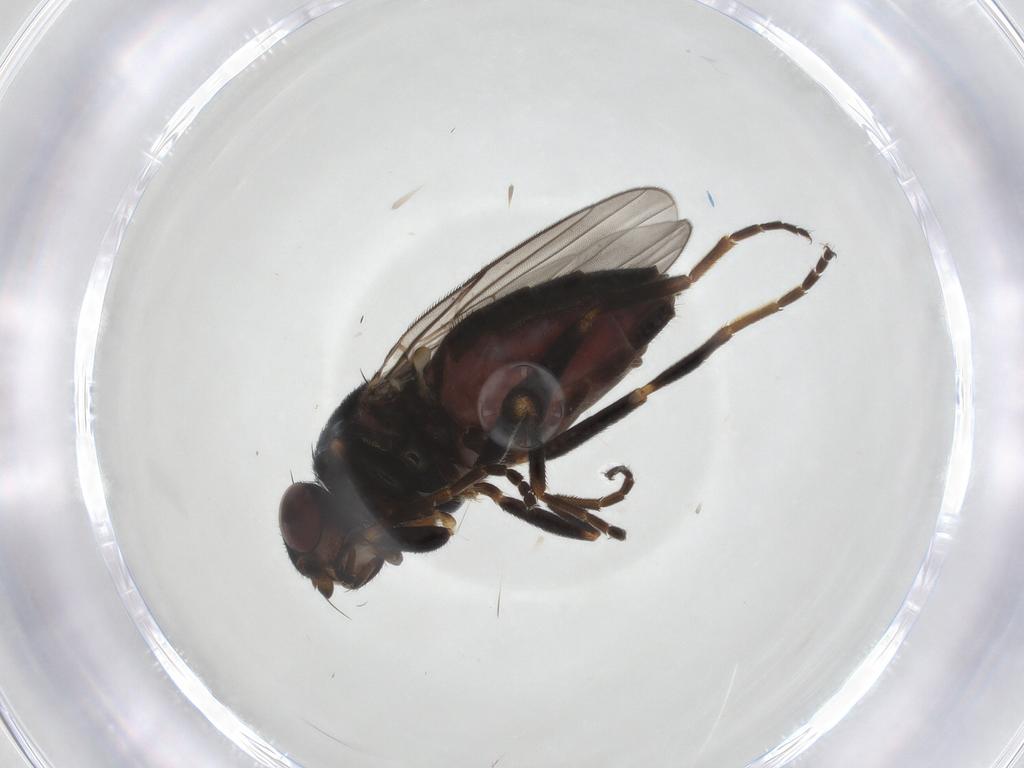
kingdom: Animalia
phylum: Arthropoda
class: Insecta
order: Diptera
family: Chloropidae
